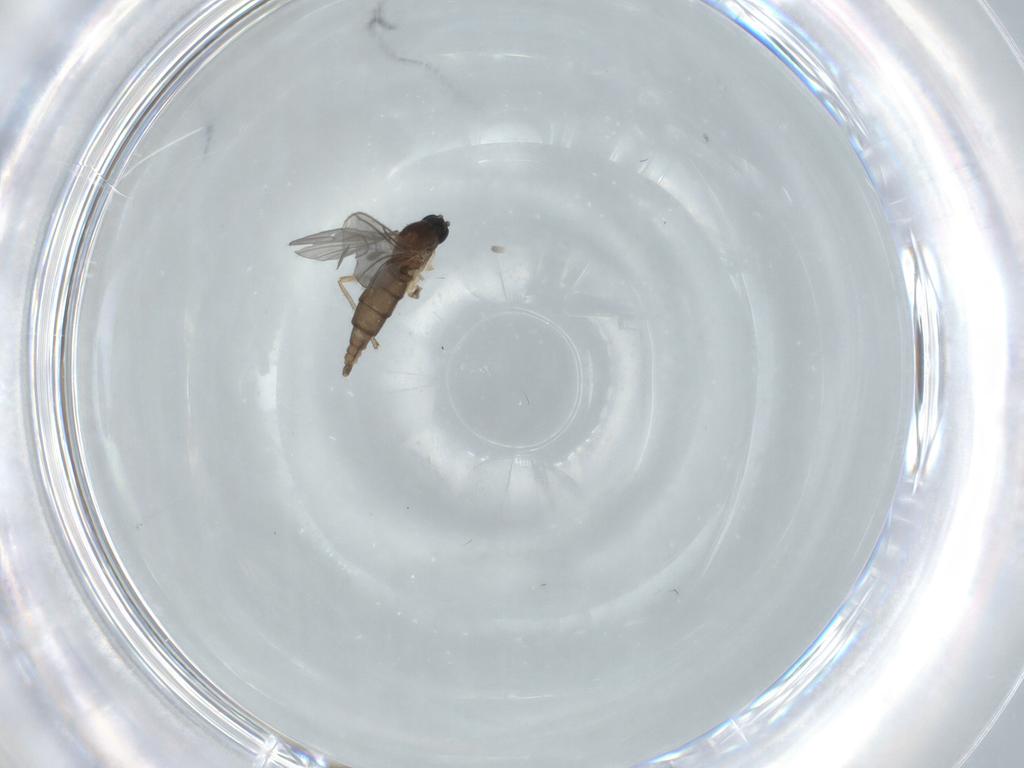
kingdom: Animalia
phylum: Arthropoda
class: Insecta
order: Diptera
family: Sciaridae
